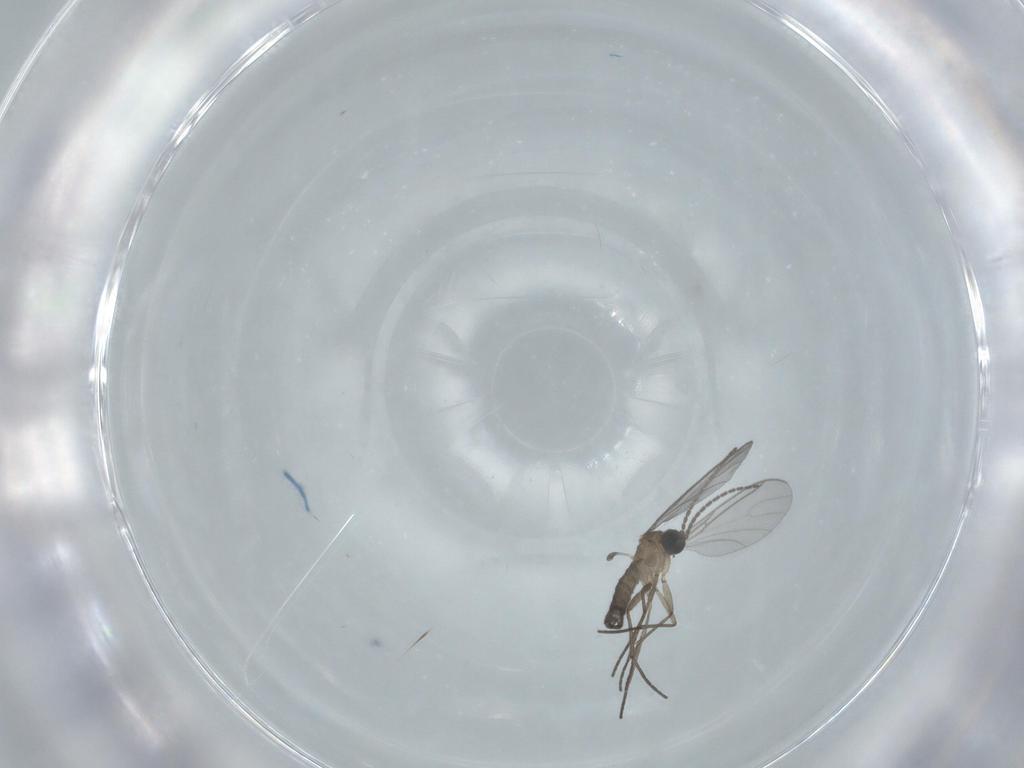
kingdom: Animalia
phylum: Arthropoda
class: Insecta
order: Diptera
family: Sciaridae
